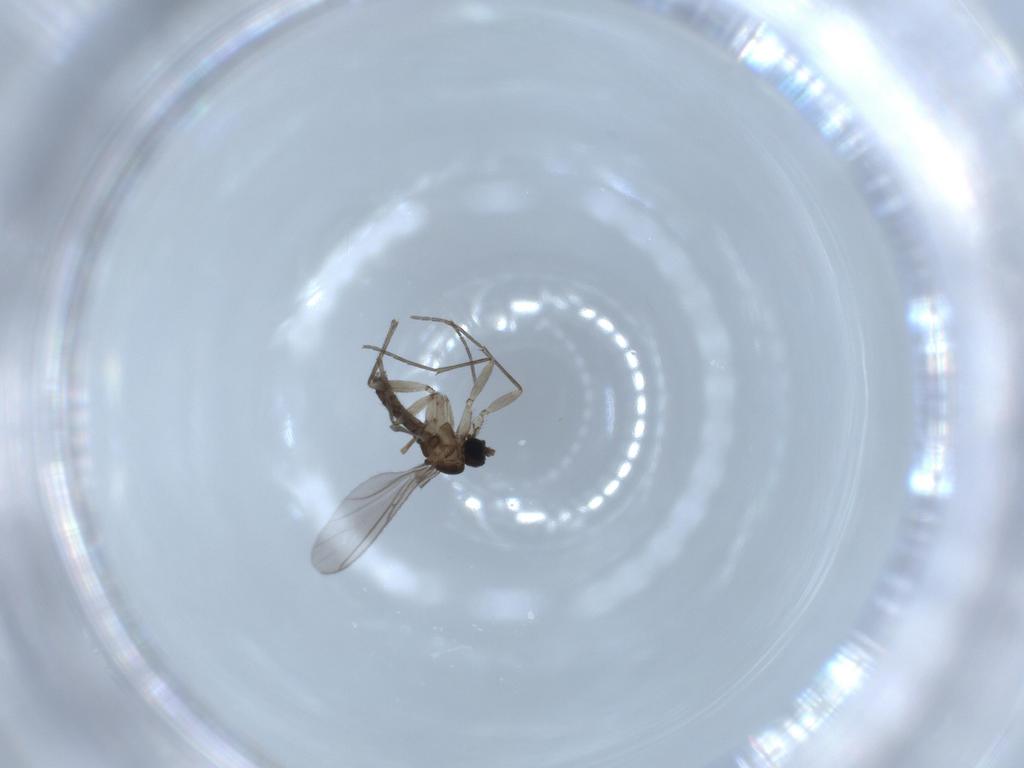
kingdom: Animalia
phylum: Arthropoda
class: Insecta
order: Diptera
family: Sciaridae
